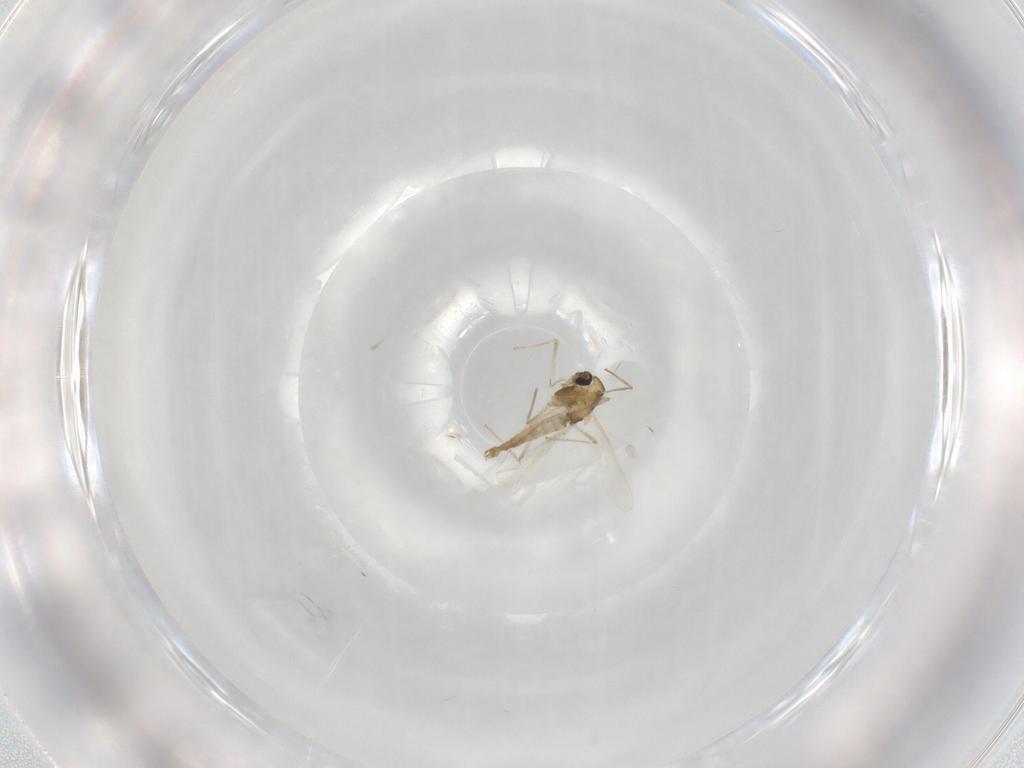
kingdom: Animalia
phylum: Arthropoda
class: Insecta
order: Diptera
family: Chironomidae
